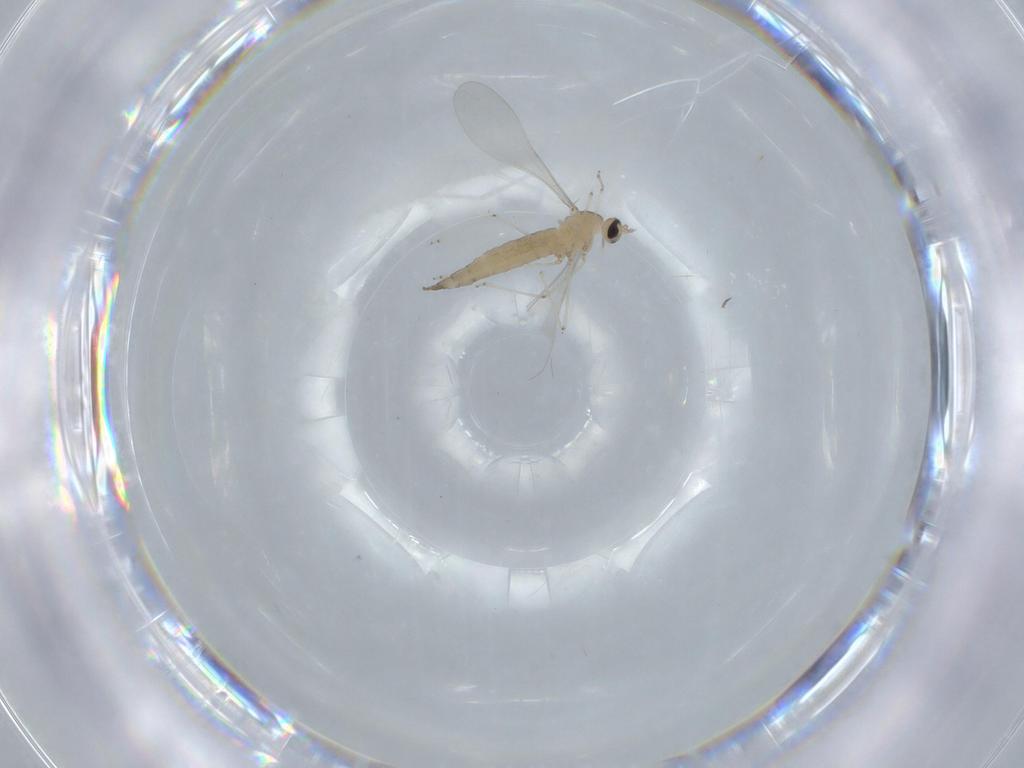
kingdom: Animalia
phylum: Arthropoda
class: Insecta
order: Diptera
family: Cecidomyiidae
